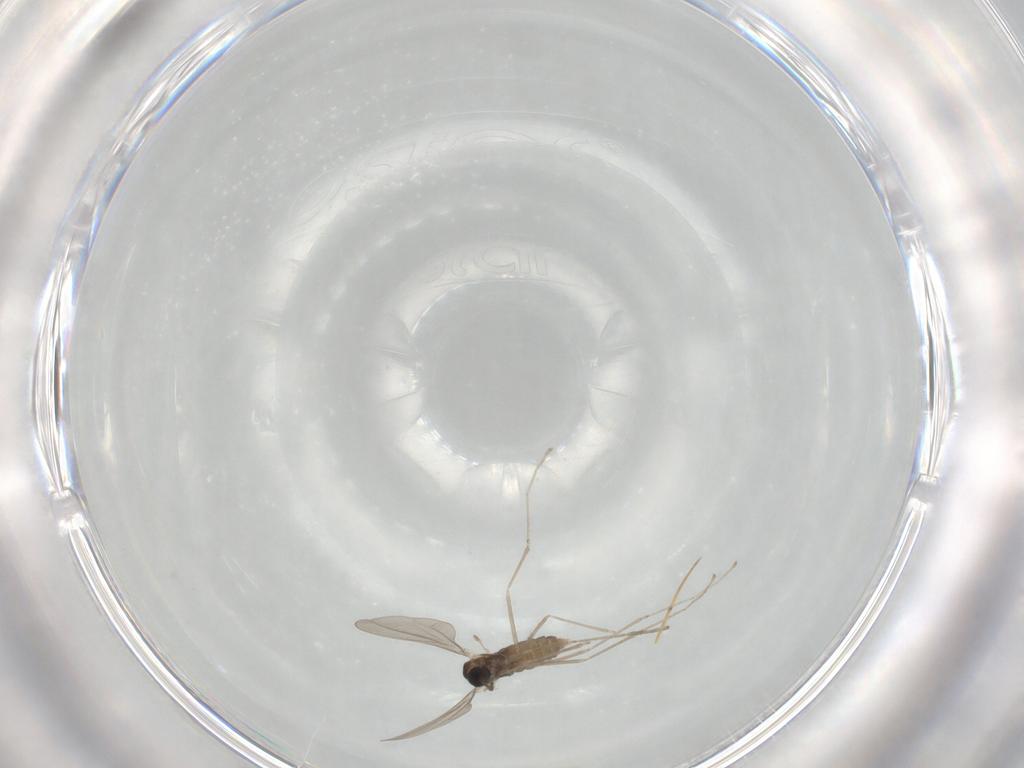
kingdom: Animalia
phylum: Arthropoda
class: Insecta
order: Diptera
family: Cecidomyiidae
